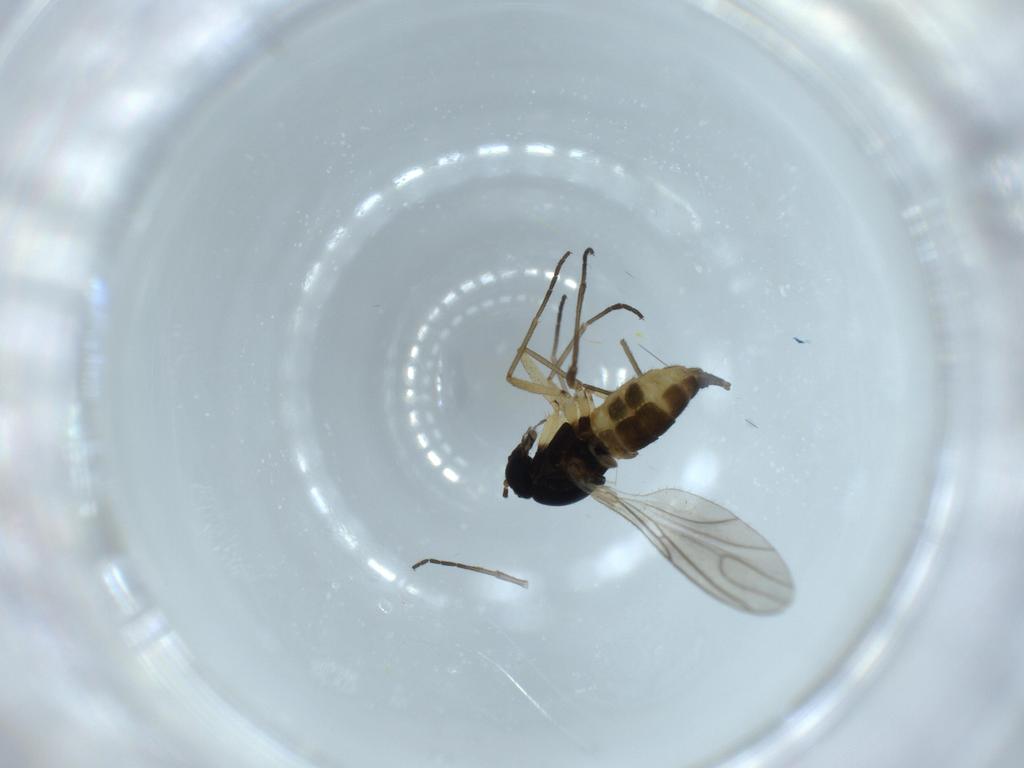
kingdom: Animalia
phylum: Arthropoda
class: Insecta
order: Diptera
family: Sciaridae
